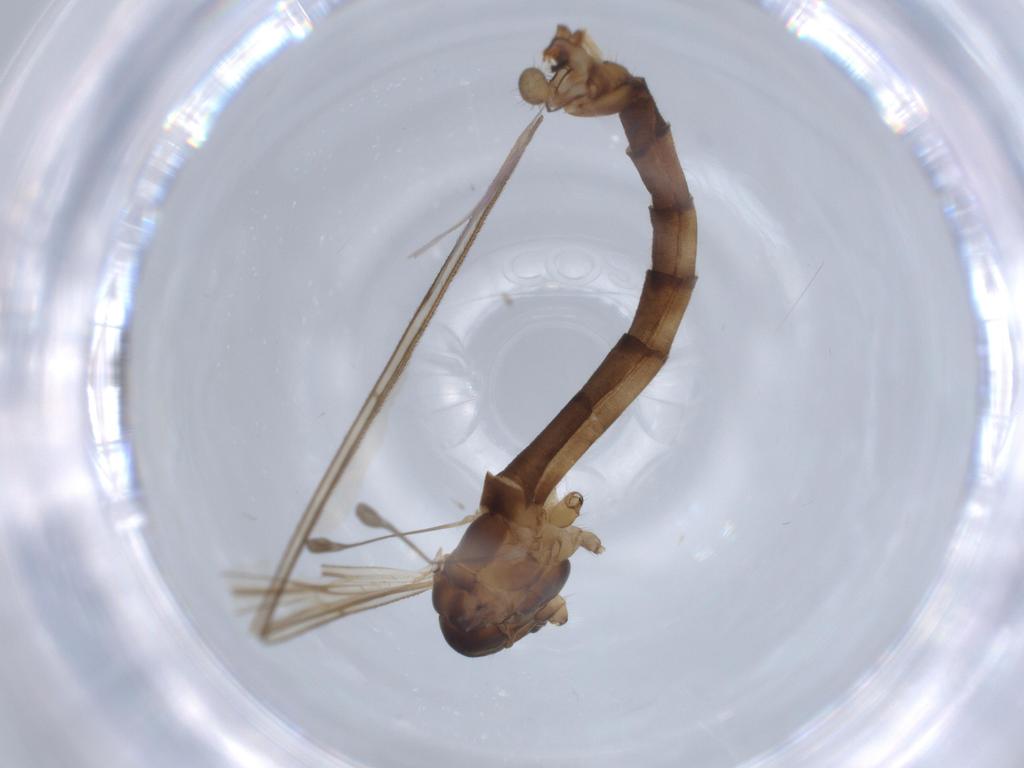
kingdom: Animalia
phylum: Arthropoda
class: Insecta
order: Diptera
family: Limoniidae
